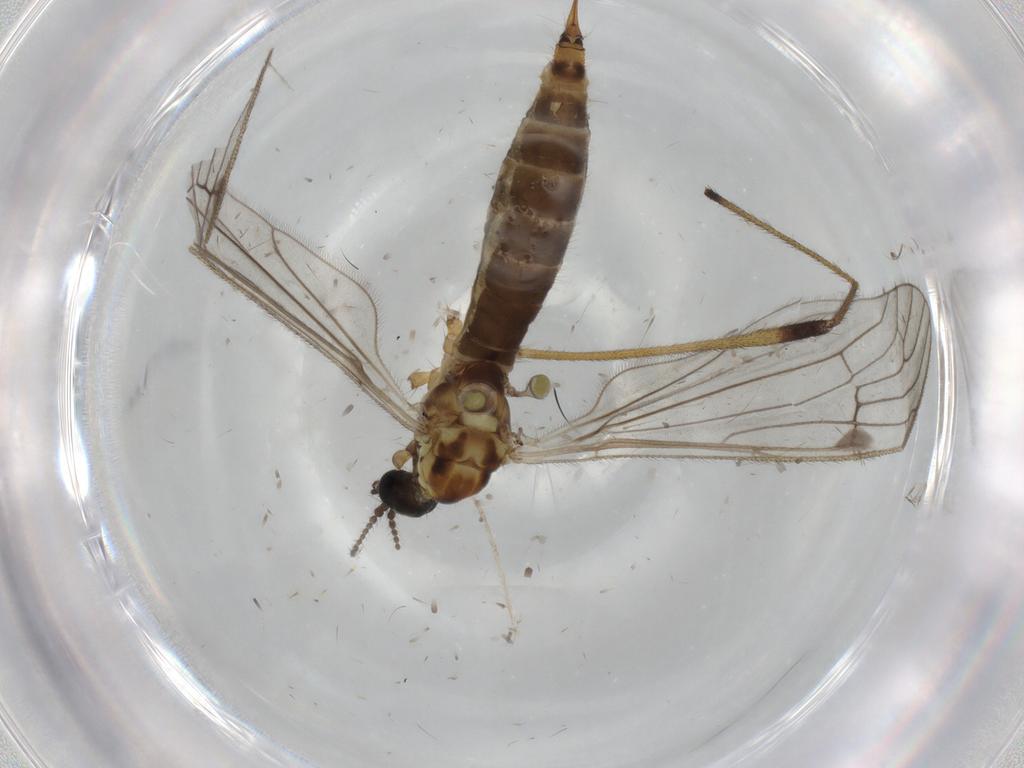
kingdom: Animalia
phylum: Arthropoda
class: Insecta
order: Diptera
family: Limoniidae
